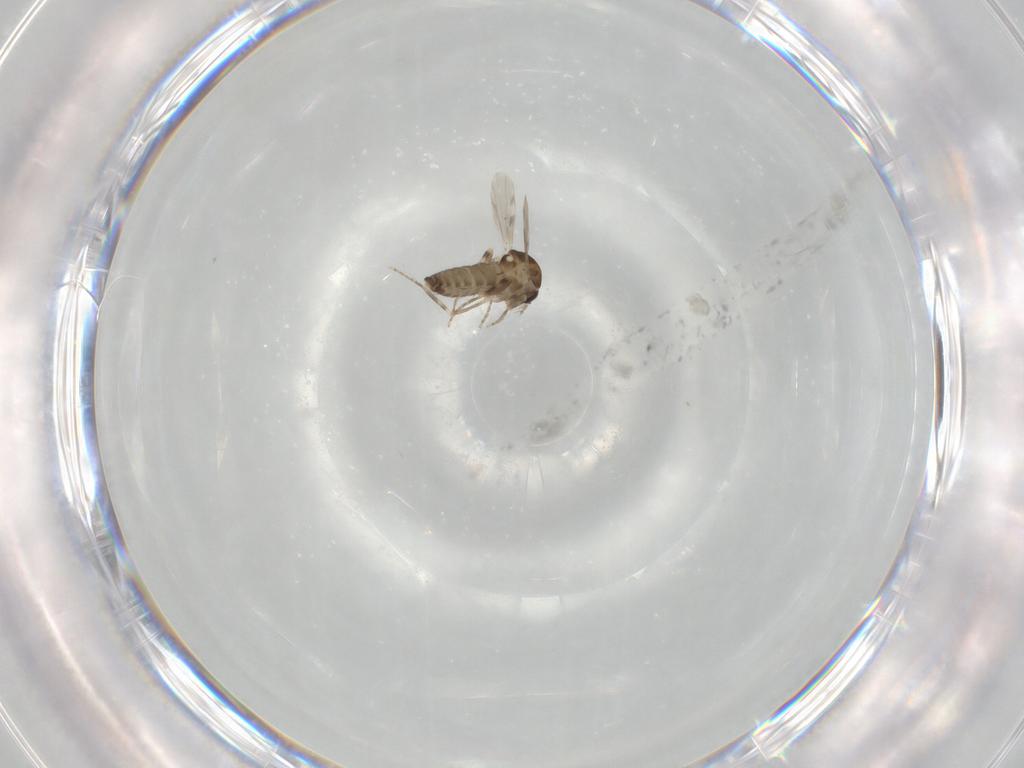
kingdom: Animalia
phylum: Arthropoda
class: Insecta
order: Diptera
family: Ceratopogonidae
